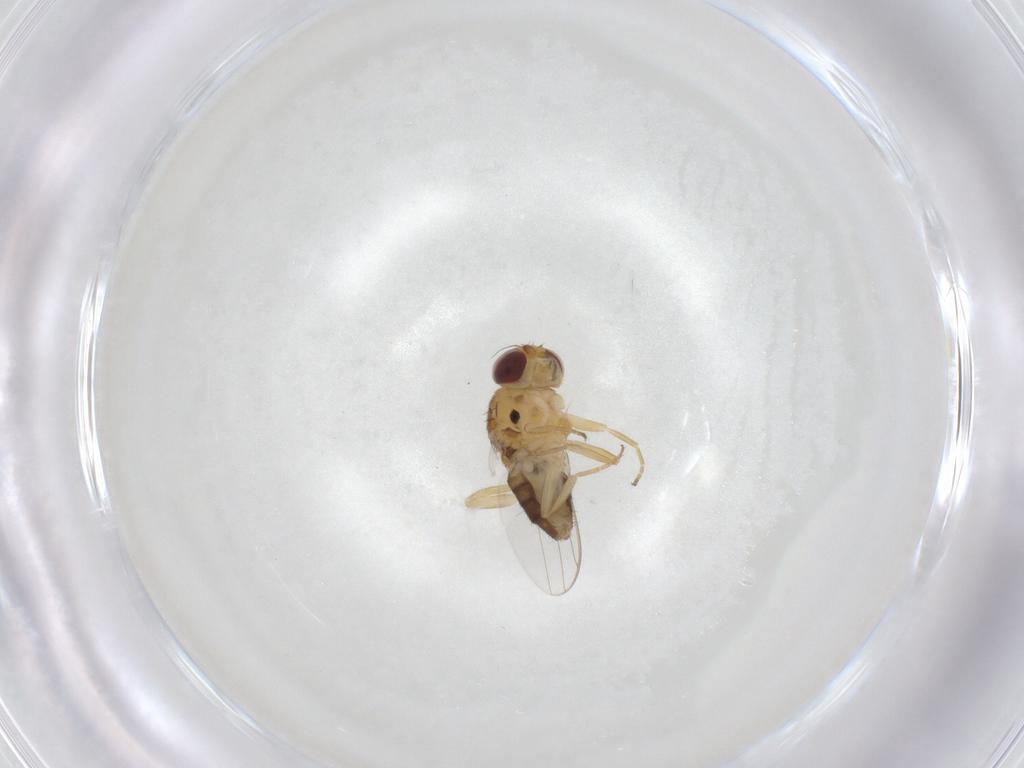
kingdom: Animalia
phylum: Arthropoda
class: Insecta
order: Diptera
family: Chloropidae
